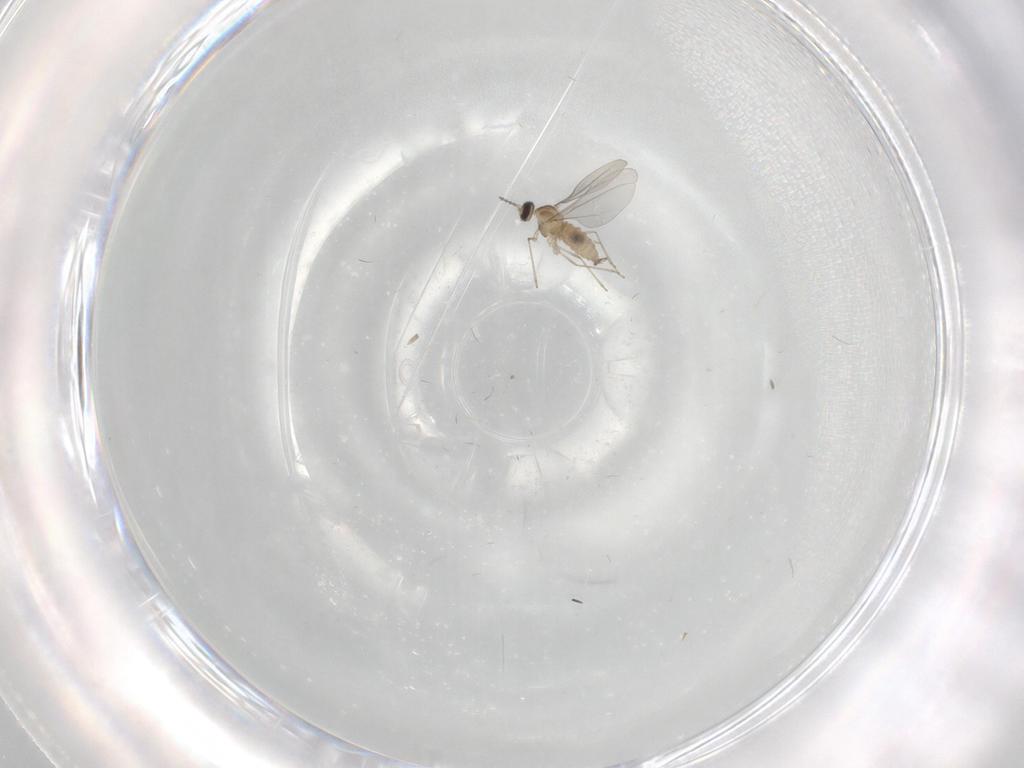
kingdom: Animalia
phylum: Arthropoda
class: Insecta
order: Diptera
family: Cecidomyiidae
